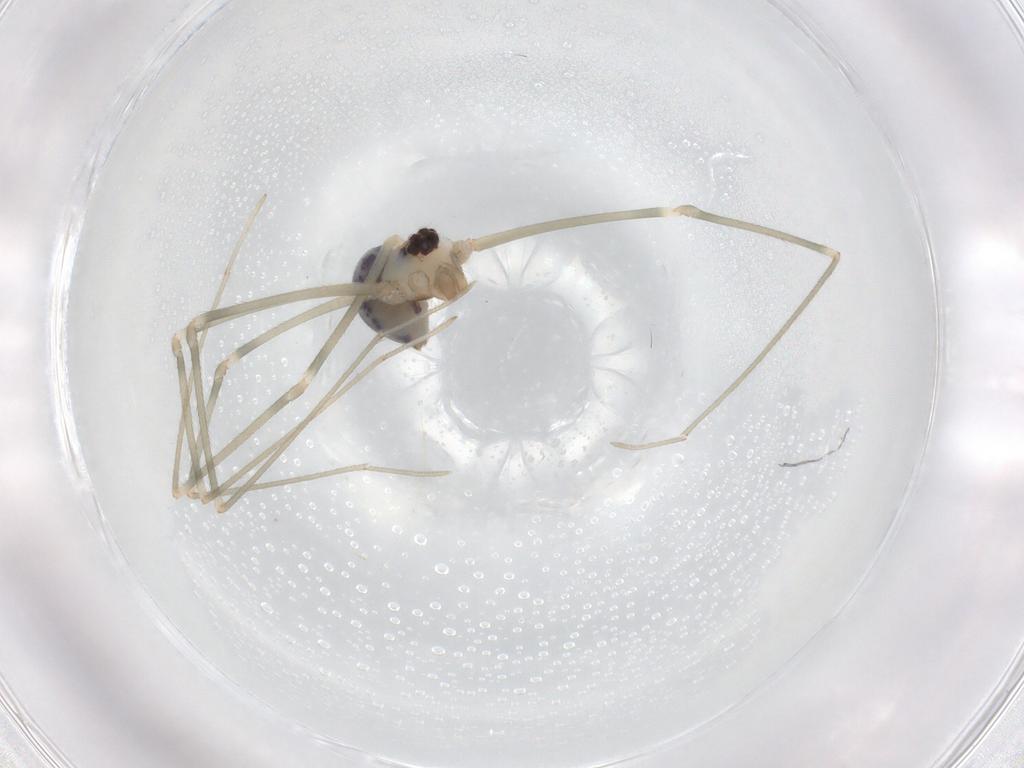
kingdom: Animalia
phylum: Arthropoda
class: Arachnida
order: Araneae
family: Pholcidae
